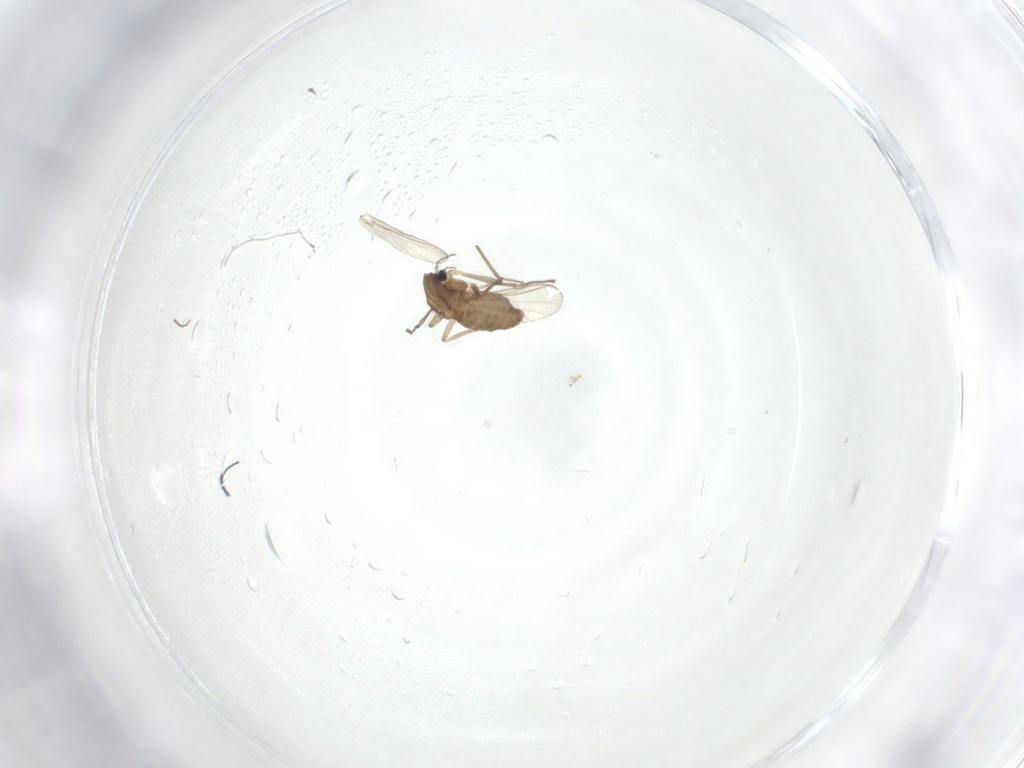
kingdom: Animalia
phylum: Arthropoda
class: Insecta
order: Diptera
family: Chironomidae
